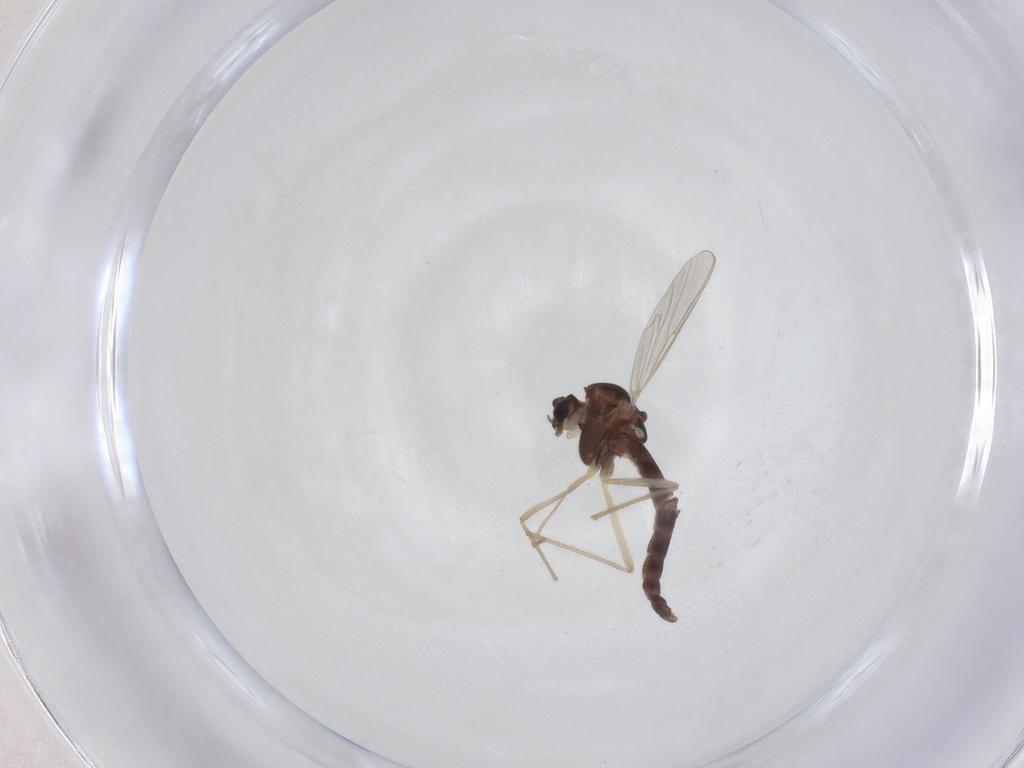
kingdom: Animalia
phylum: Arthropoda
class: Insecta
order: Diptera
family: Chironomidae
